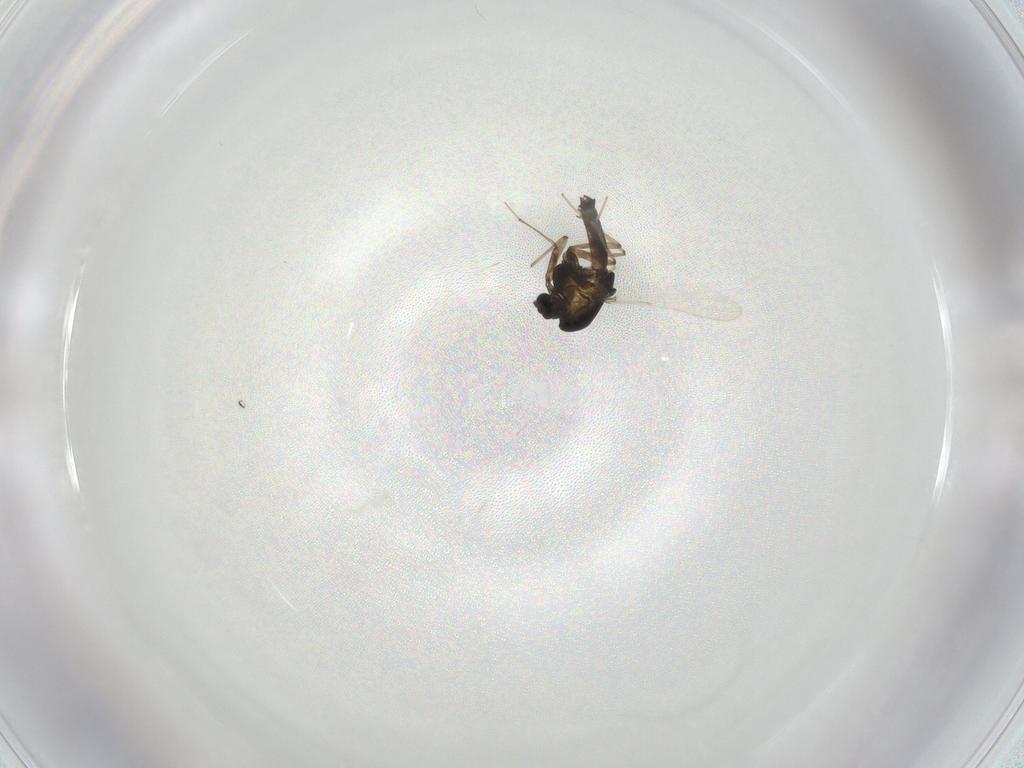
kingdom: Animalia
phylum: Arthropoda
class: Insecta
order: Diptera
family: Chironomidae
